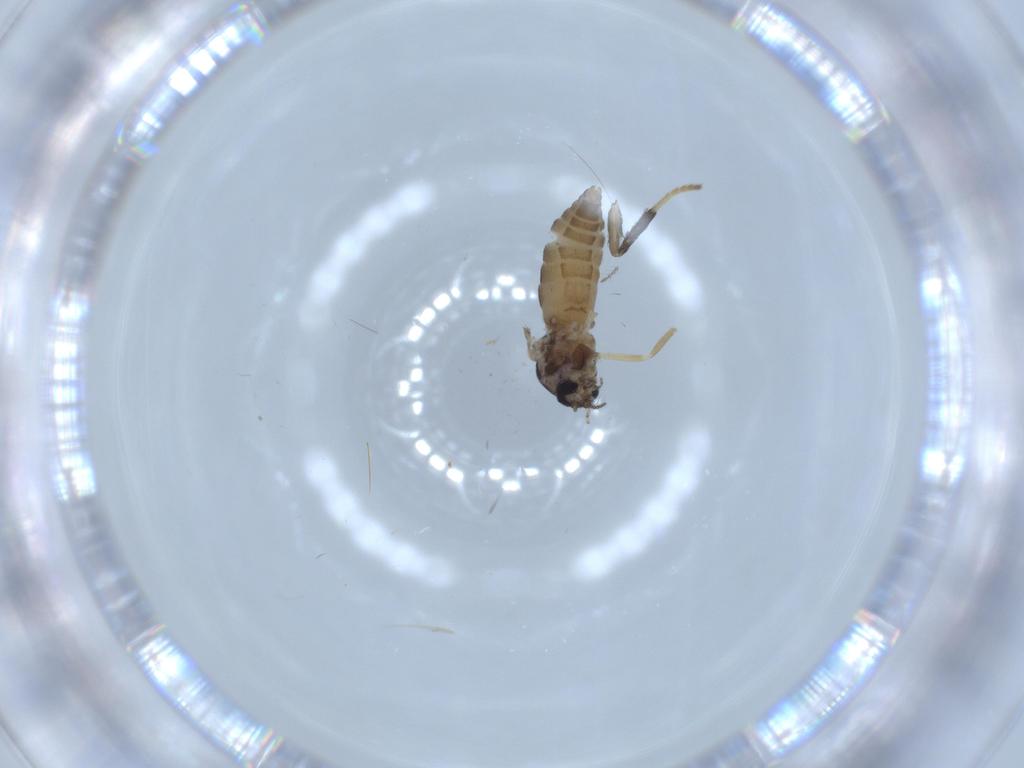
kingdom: Animalia
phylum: Arthropoda
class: Insecta
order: Diptera
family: Ceratopogonidae
